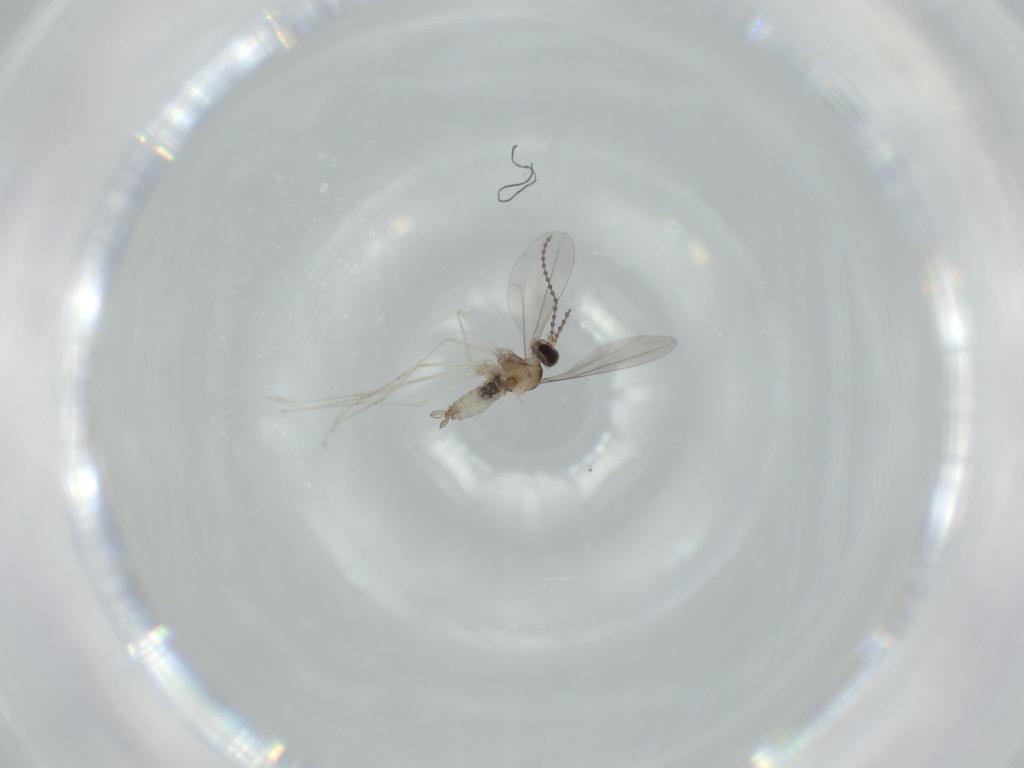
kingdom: Animalia
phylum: Arthropoda
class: Insecta
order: Diptera
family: Cecidomyiidae
